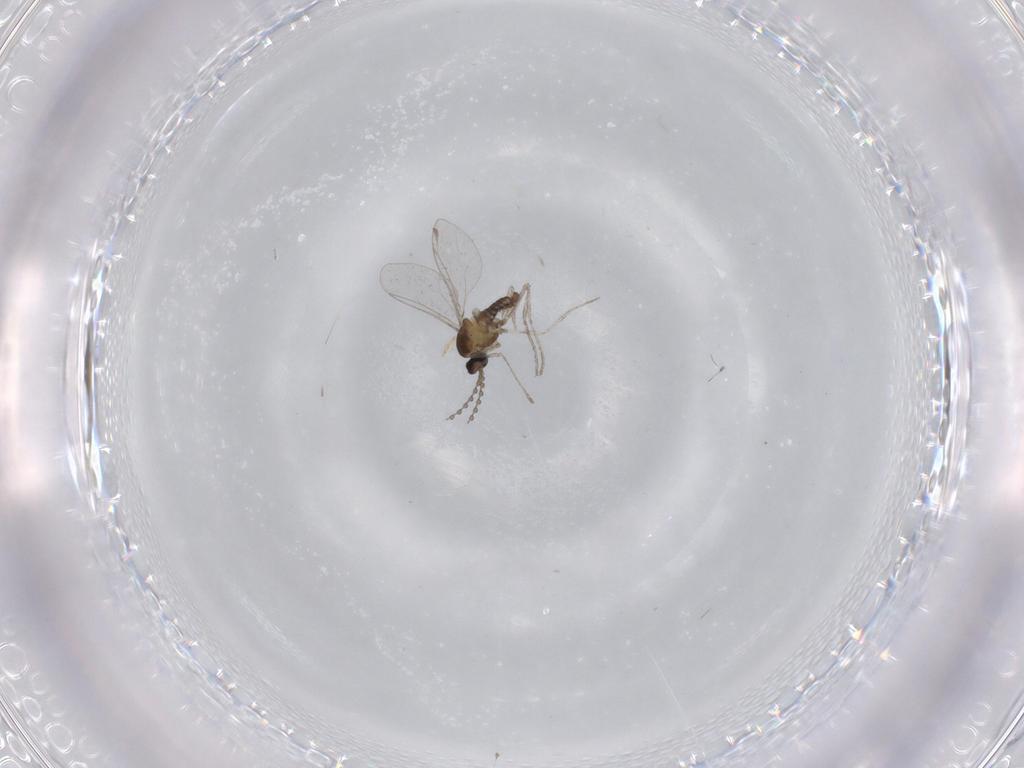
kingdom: Animalia
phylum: Arthropoda
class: Insecta
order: Diptera
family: Cecidomyiidae
